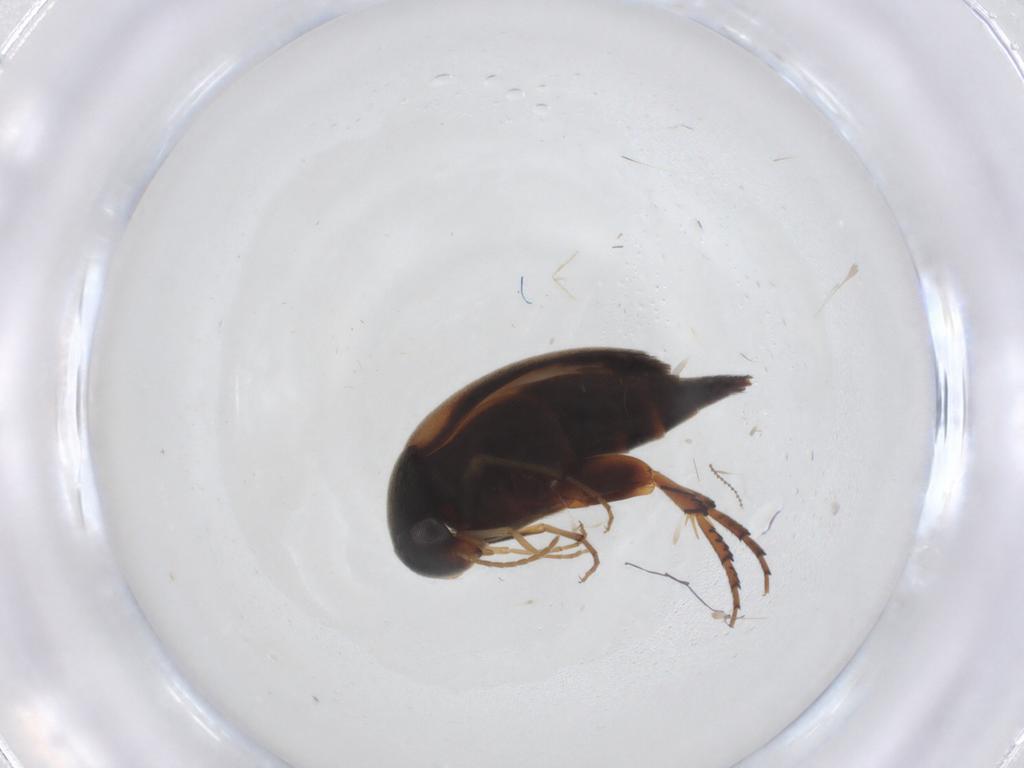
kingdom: Animalia
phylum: Arthropoda
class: Insecta
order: Coleoptera
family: Mordellidae
